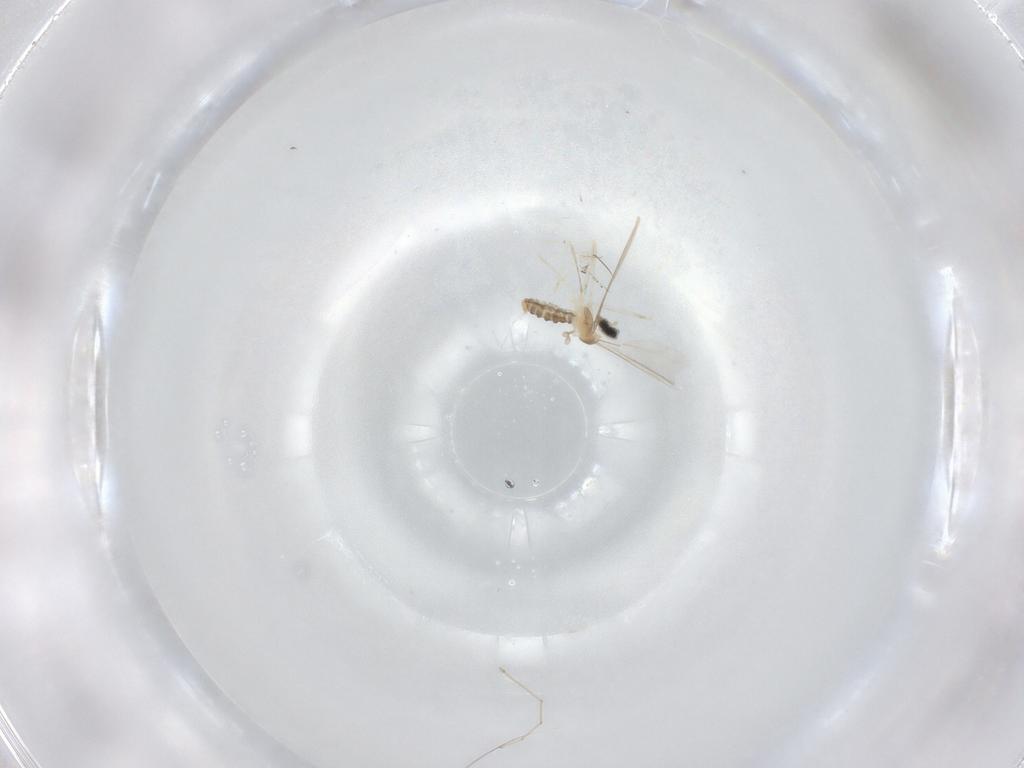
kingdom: Animalia
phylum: Arthropoda
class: Insecta
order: Diptera
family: Cecidomyiidae
